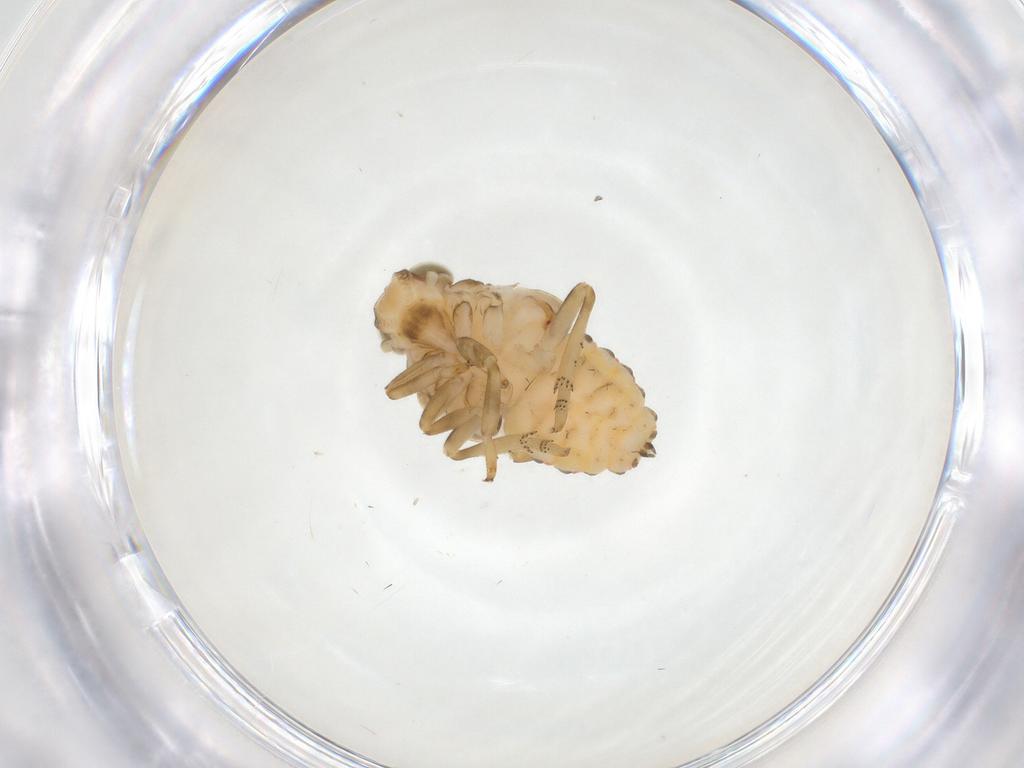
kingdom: Animalia
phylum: Arthropoda
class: Insecta
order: Hemiptera
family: Issidae
